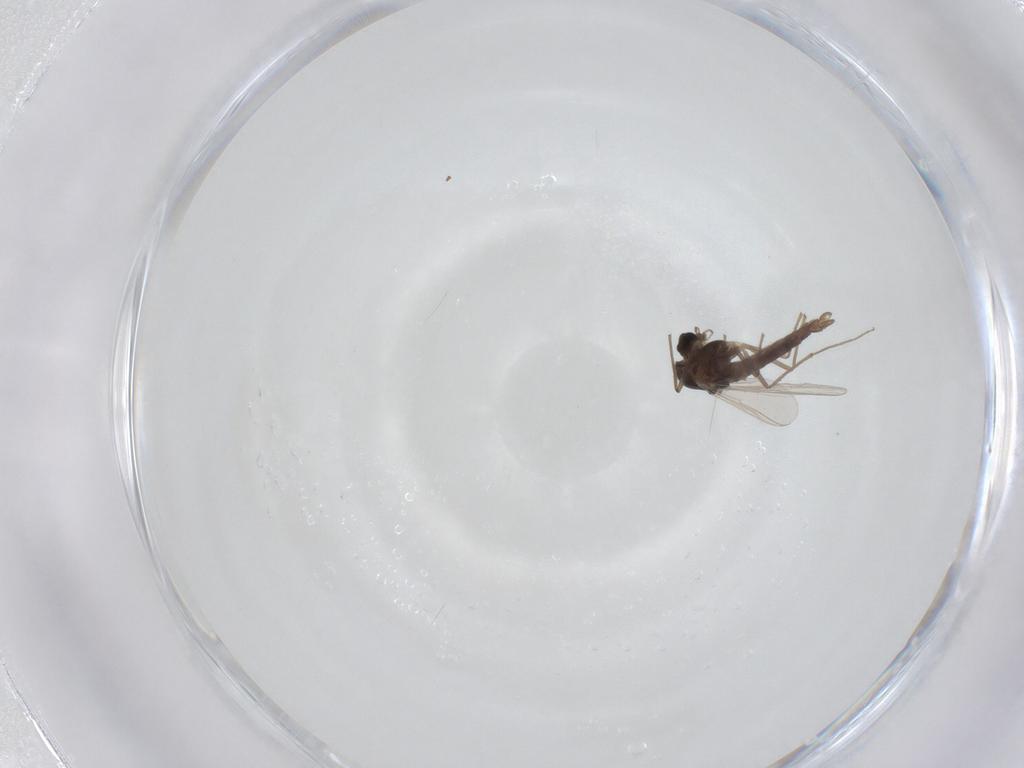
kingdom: Animalia
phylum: Arthropoda
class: Insecta
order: Diptera
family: Chironomidae
